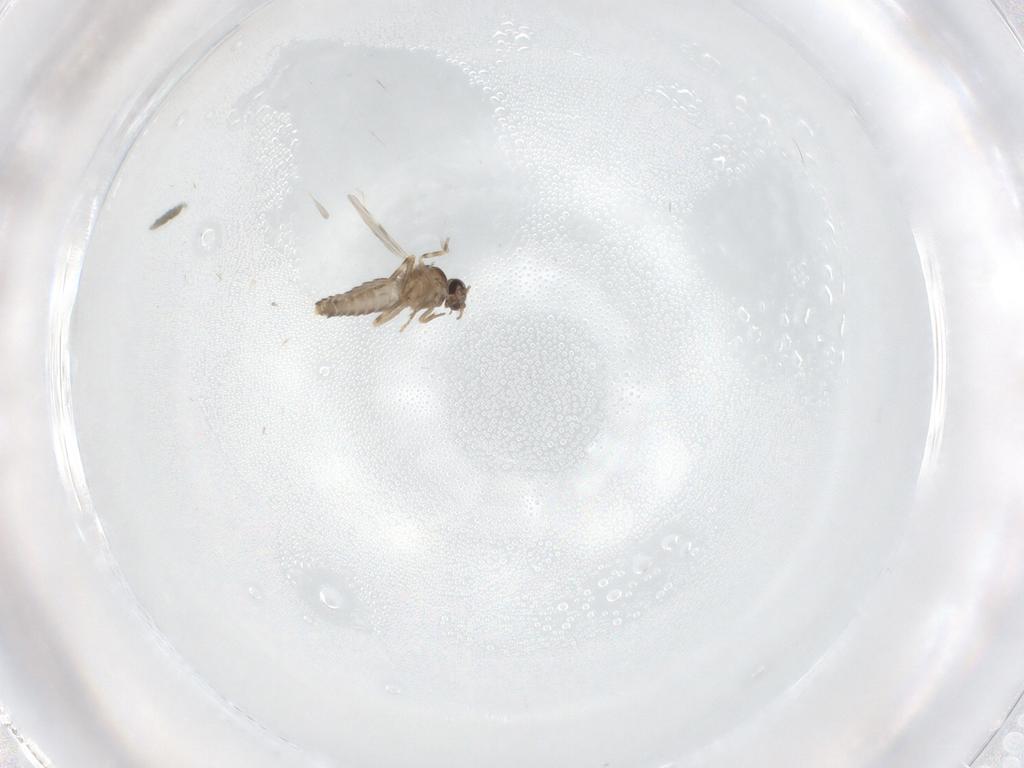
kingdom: Animalia
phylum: Arthropoda
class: Insecta
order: Diptera
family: Ceratopogonidae
